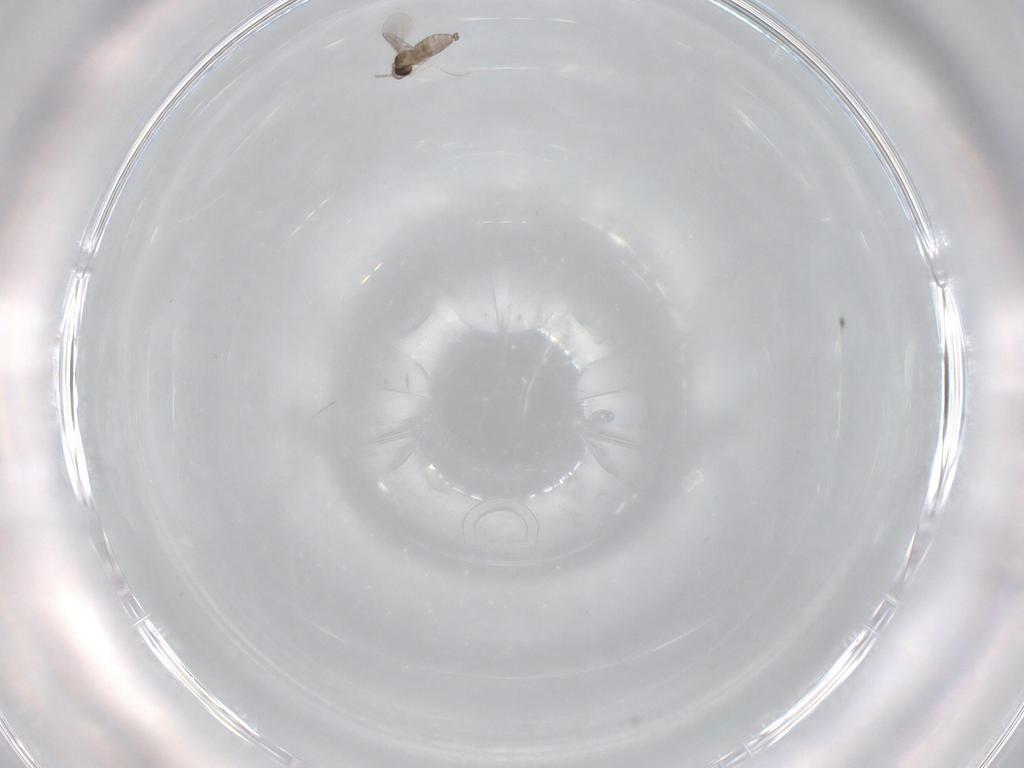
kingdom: Animalia
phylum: Arthropoda
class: Insecta
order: Diptera
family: Cecidomyiidae
